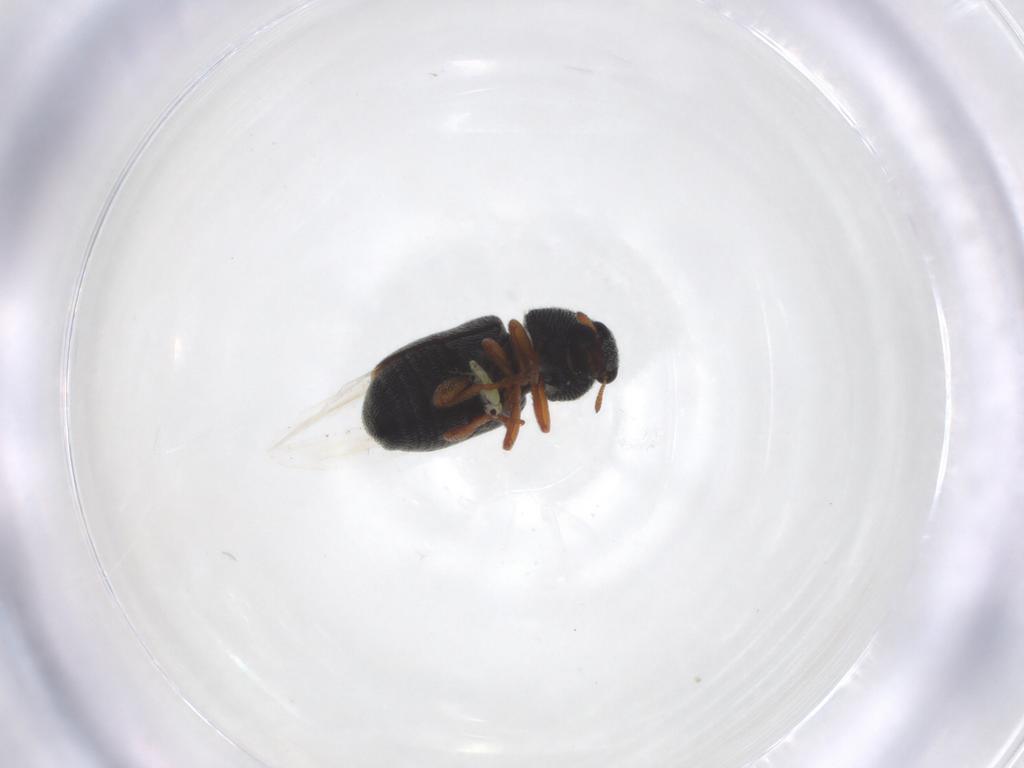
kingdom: Animalia
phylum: Arthropoda
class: Insecta
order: Coleoptera
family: Anthribidae
